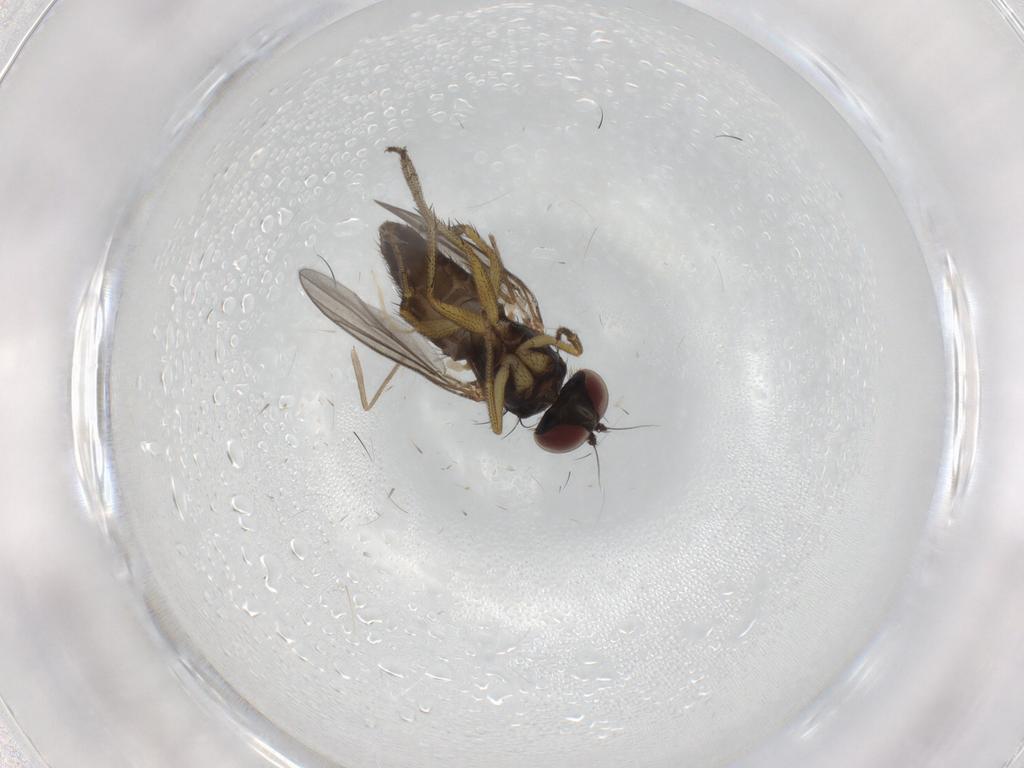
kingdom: Animalia
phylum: Arthropoda
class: Insecta
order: Diptera
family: Dolichopodidae
